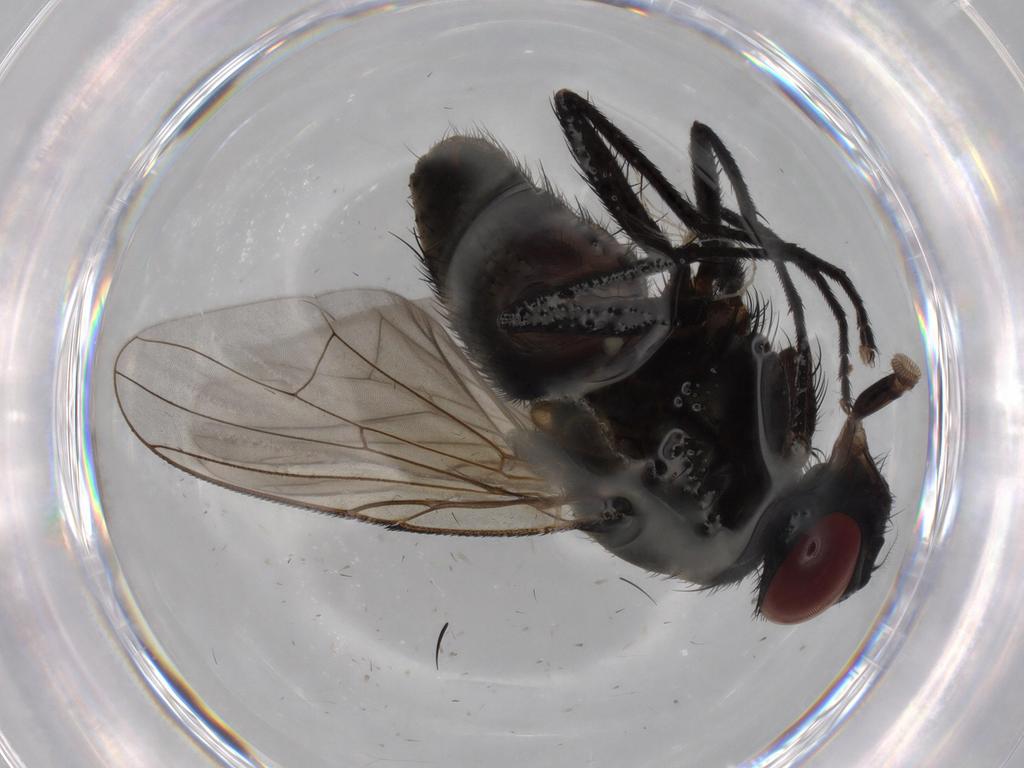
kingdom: Animalia
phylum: Arthropoda
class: Insecta
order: Diptera
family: Muscidae
